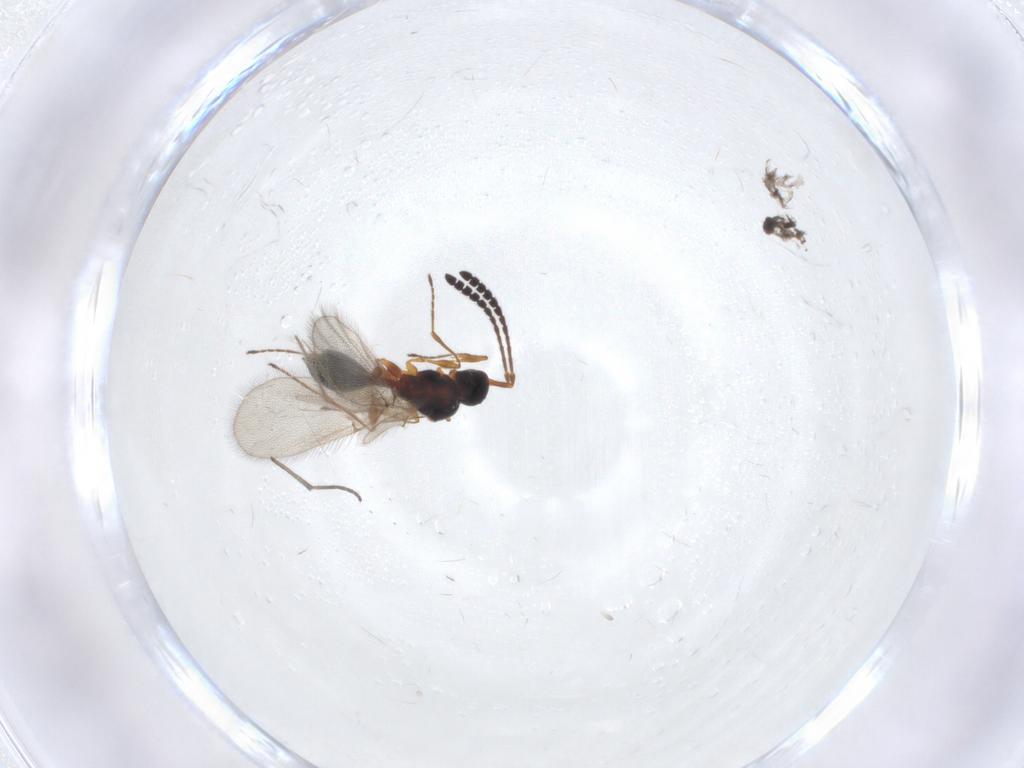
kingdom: Animalia
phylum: Arthropoda
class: Insecta
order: Hymenoptera
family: Diapriidae
